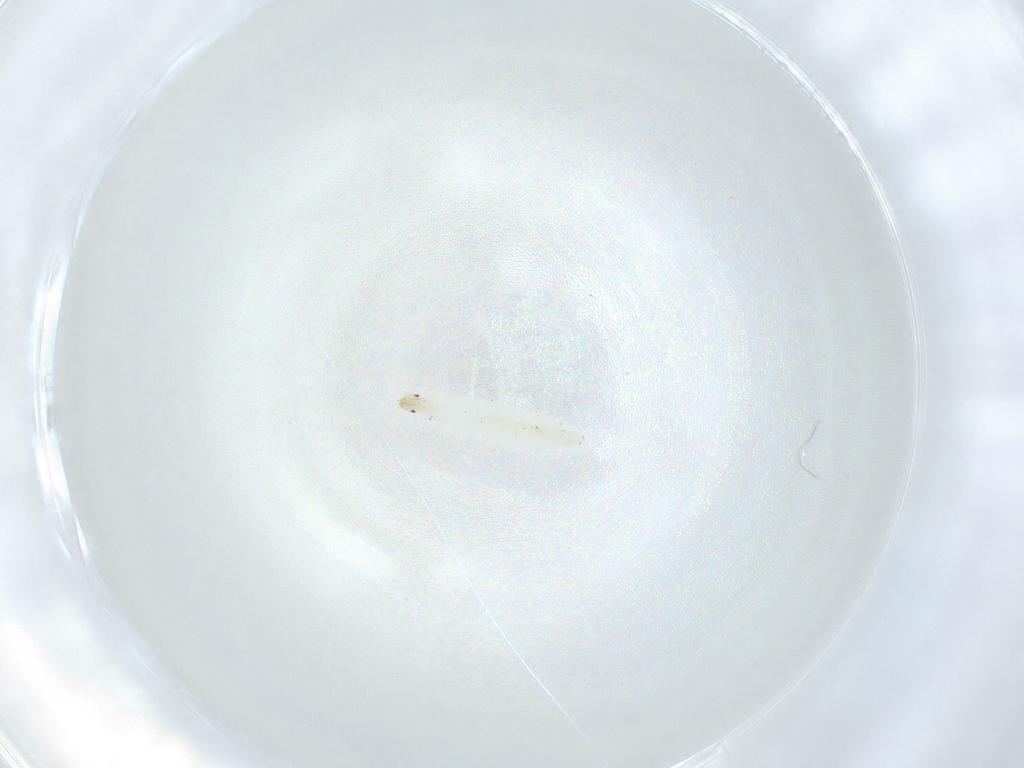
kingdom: Animalia
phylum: Arthropoda
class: Insecta
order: Diptera
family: Stratiomyidae
